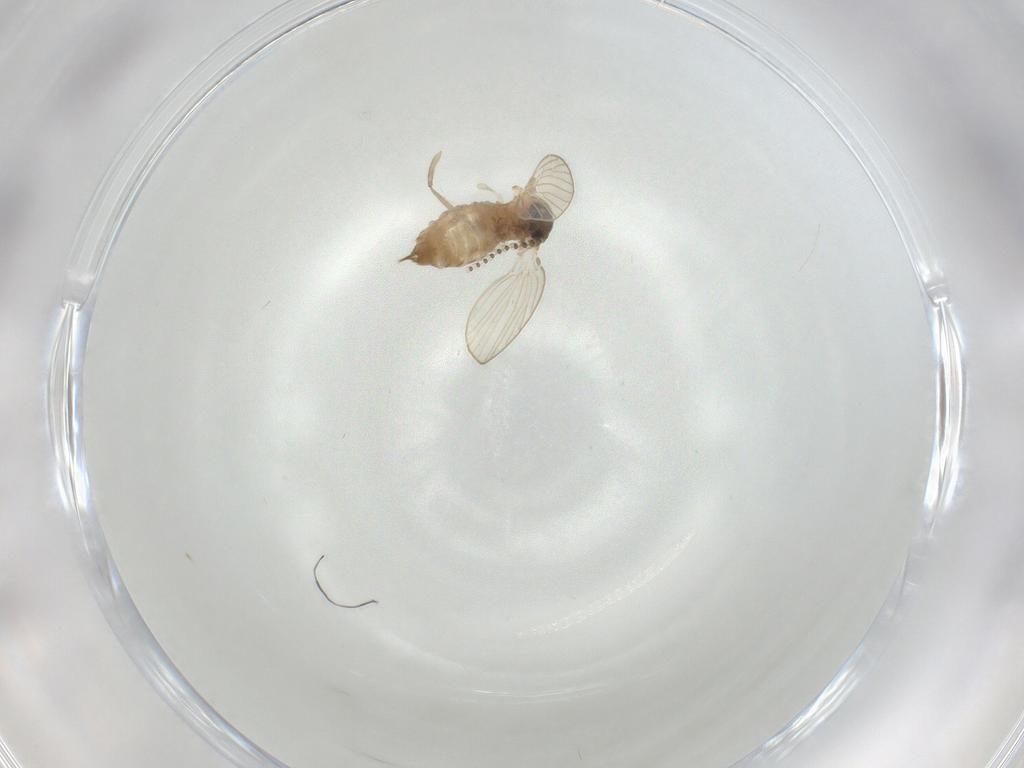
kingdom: Animalia
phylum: Arthropoda
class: Insecta
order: Diptera
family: Psychodidae
